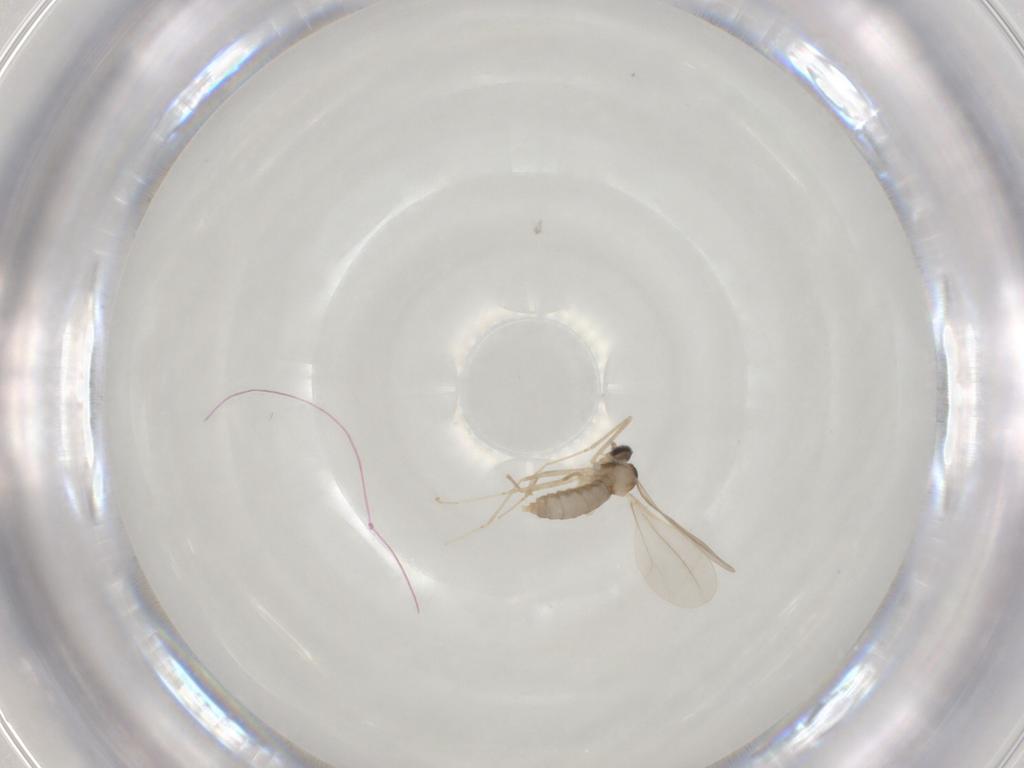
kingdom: Animalia
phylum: Arthropoda
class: Insecta
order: Diptera
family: Cecidomyiidae
